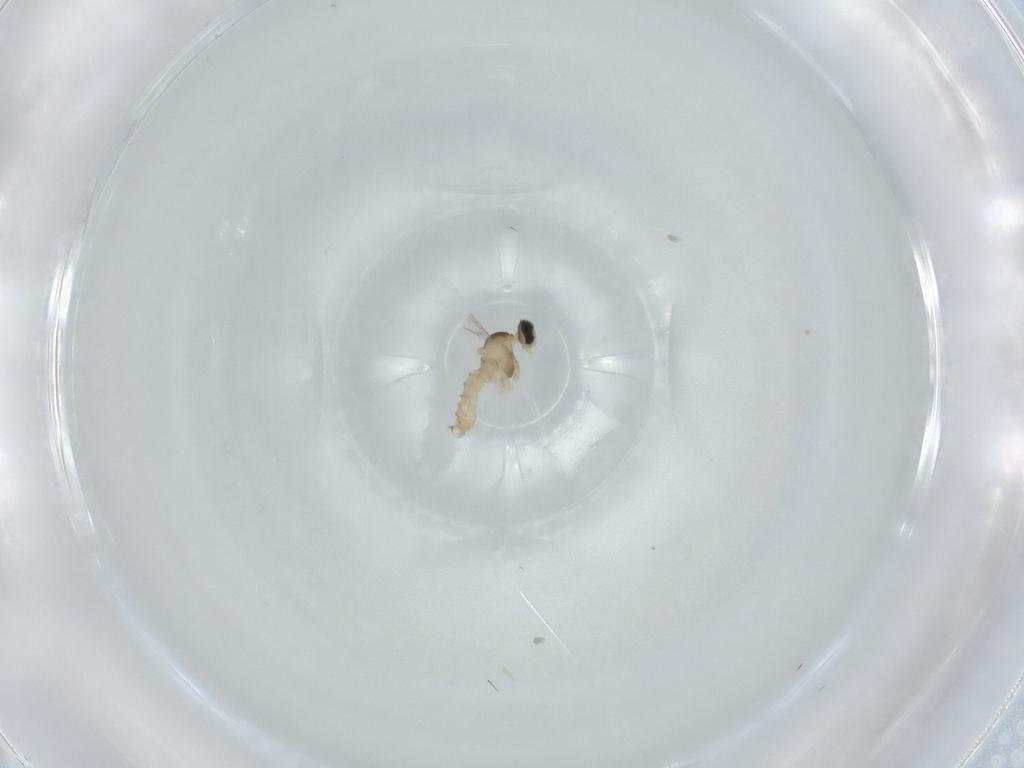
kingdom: Animalia
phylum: Arthropoda
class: Insecta
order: Diptera
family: Cecidomyiidae
